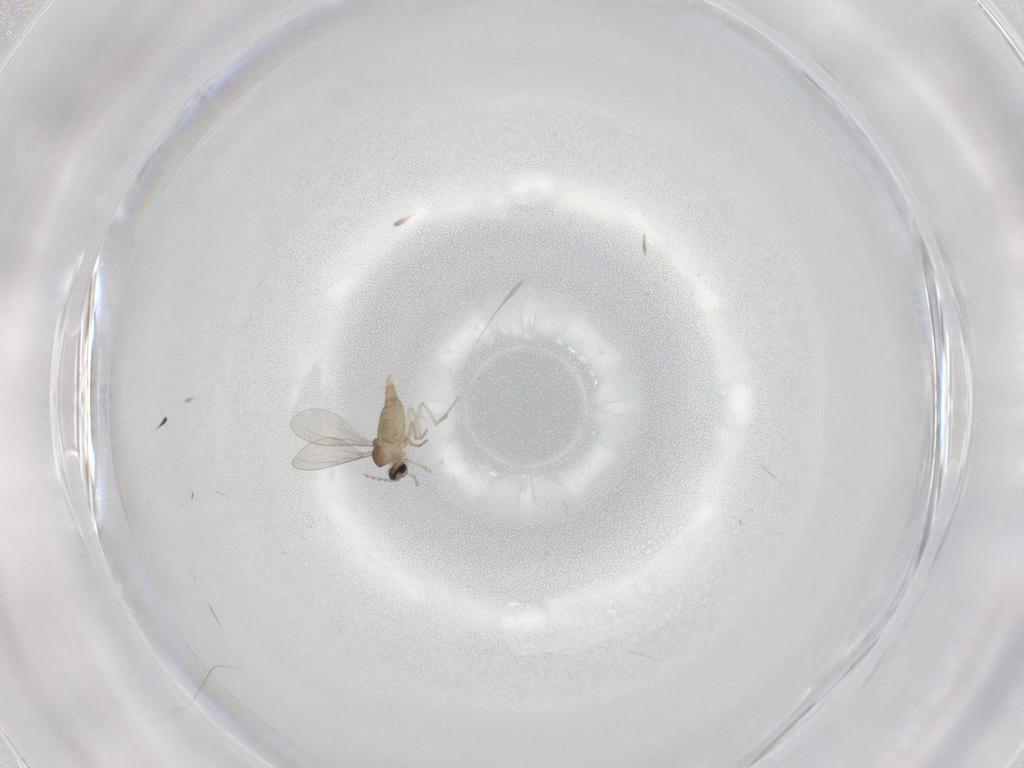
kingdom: Animalia
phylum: Arthropoda
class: Insecta
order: Diptera
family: Cecidomyiidae
